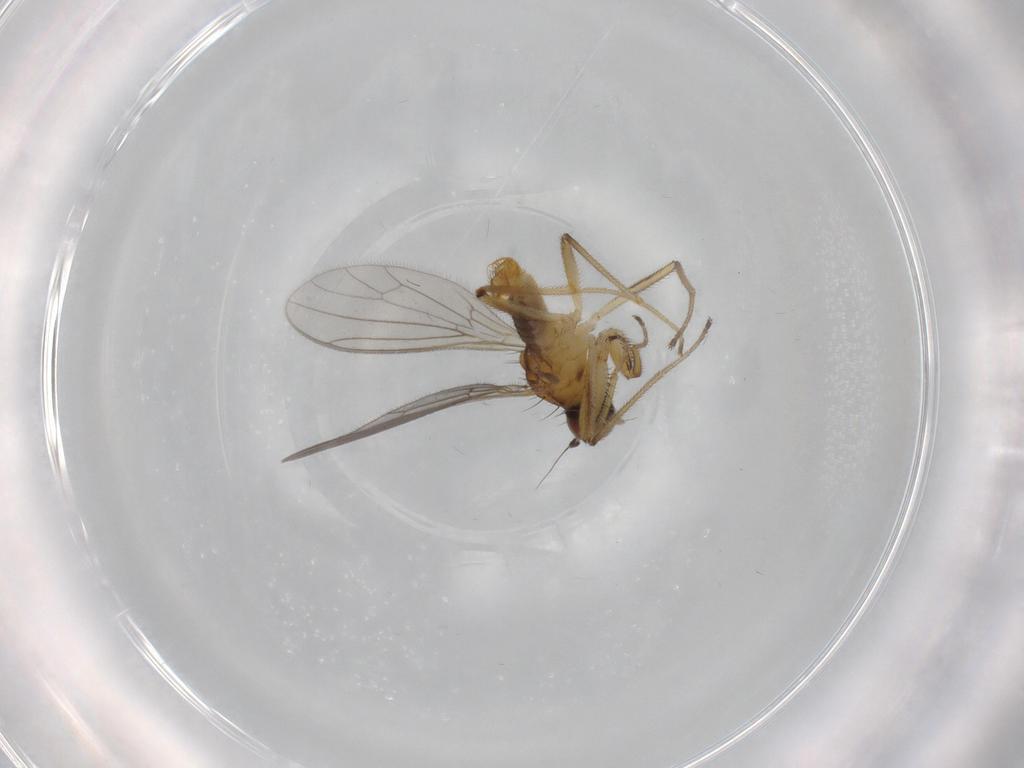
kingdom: Animalia
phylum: Arthropoda
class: Insecta
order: Diptera
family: Empididae
